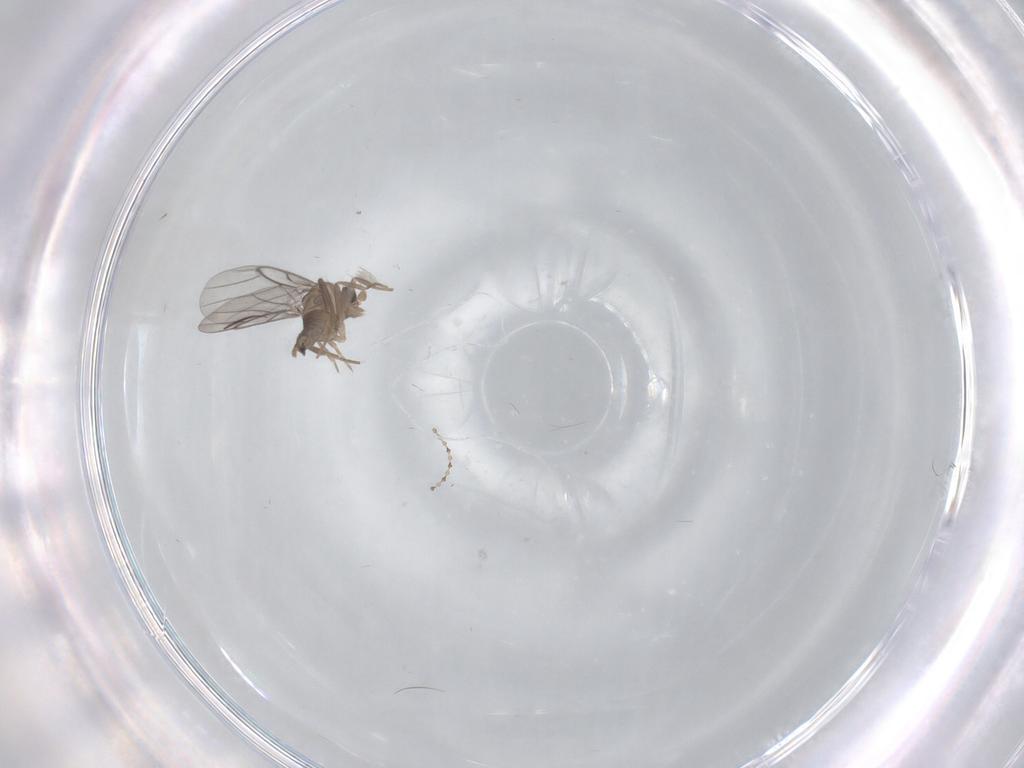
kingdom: Animalia
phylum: Arthropoda
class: Insecta
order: Diptera
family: Cecidomyiidae
